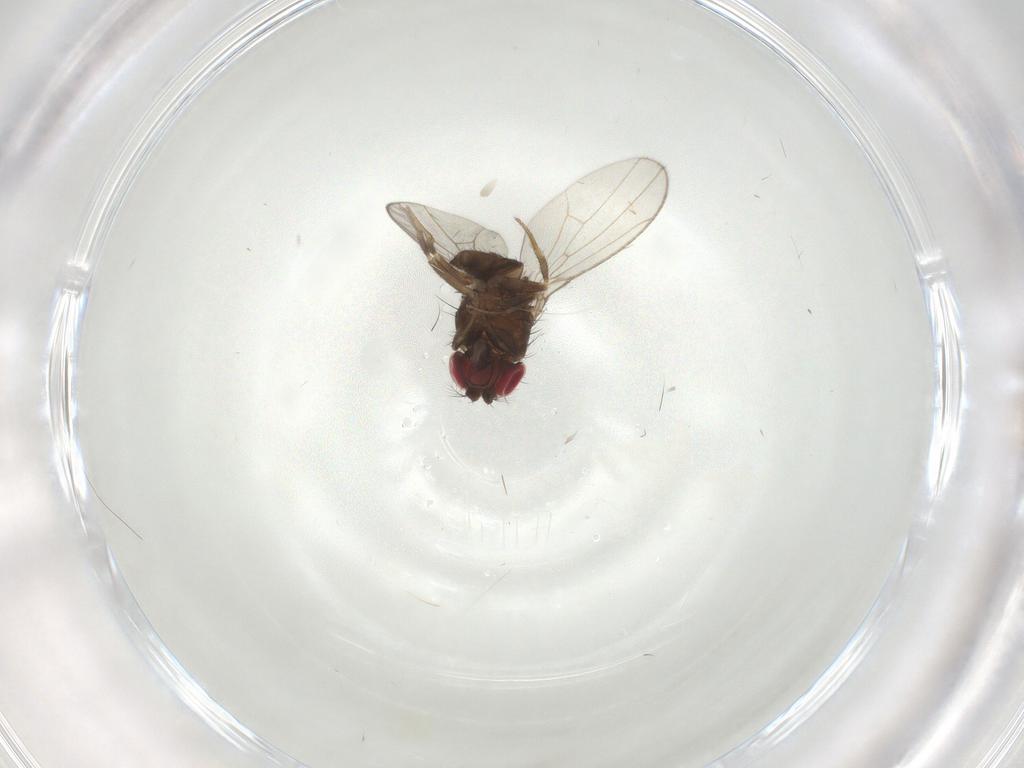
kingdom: Animalia
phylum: Arthropoda
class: Insecta
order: Diptera
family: Drosophilidae
